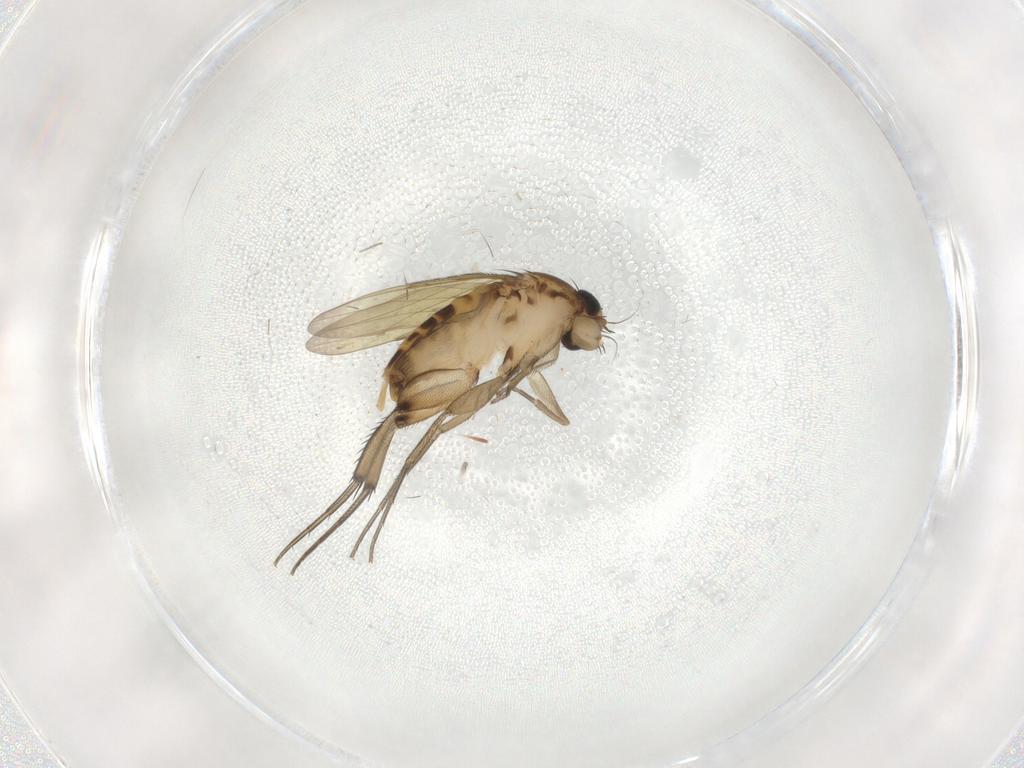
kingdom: Animalia
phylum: Arthropoda
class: Insecta
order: Diptera
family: Phoridae
